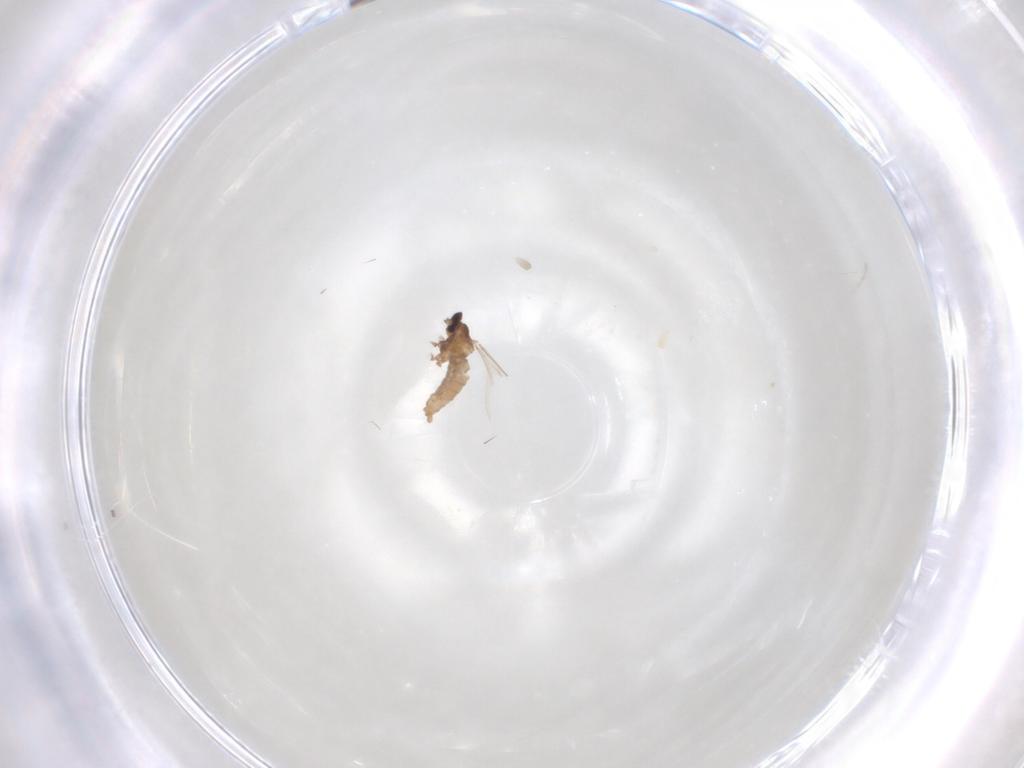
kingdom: Animalia
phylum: Arthropoda
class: Insecta
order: Diptera
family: Cecidomyiidae
